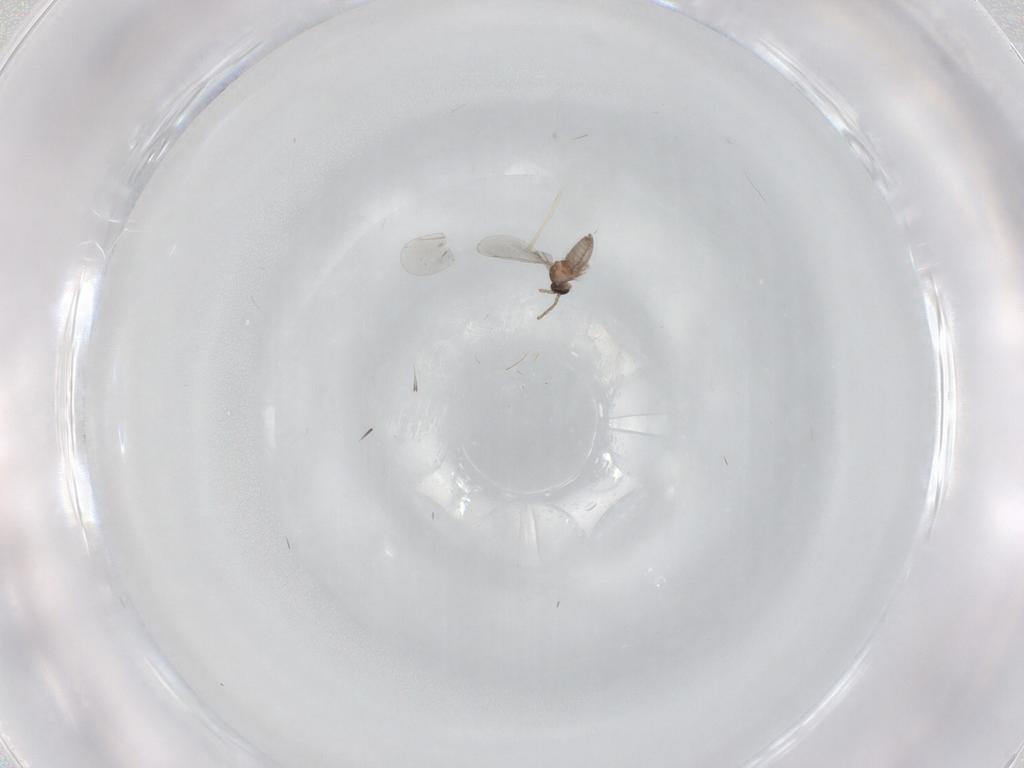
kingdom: Animalia
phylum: Arthropoda
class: Insecta
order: Diptera
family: Cecidomyiidae
